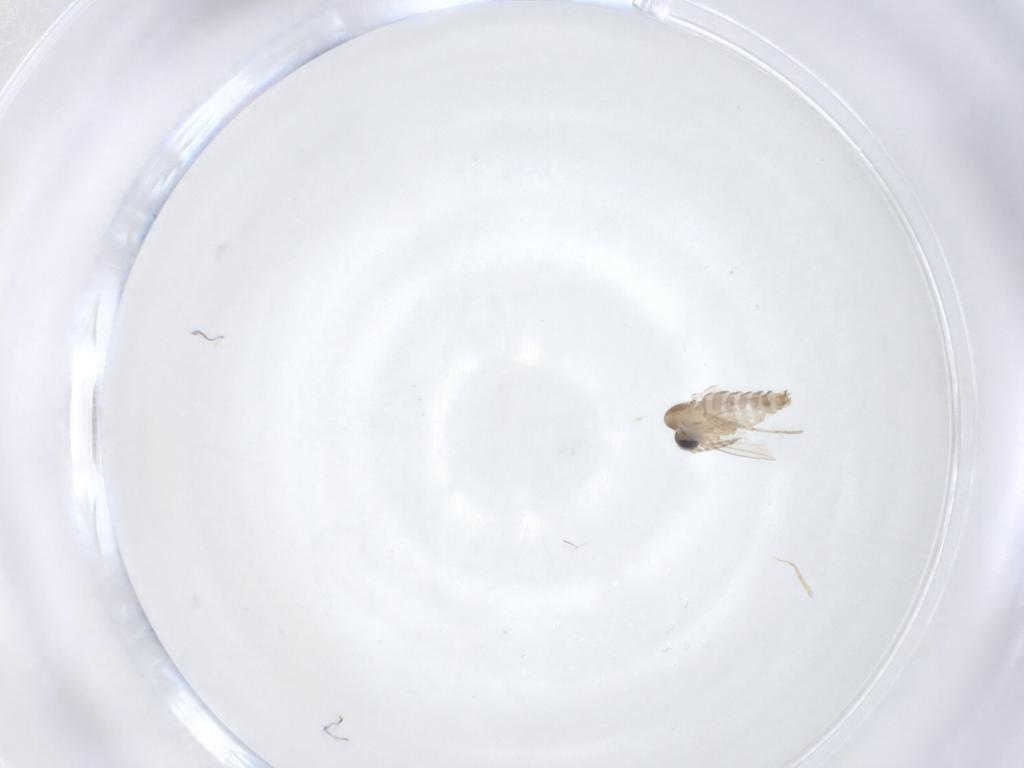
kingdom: Animalia
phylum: Arthropoda
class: Insecta
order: Diptera
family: Psychodidae
